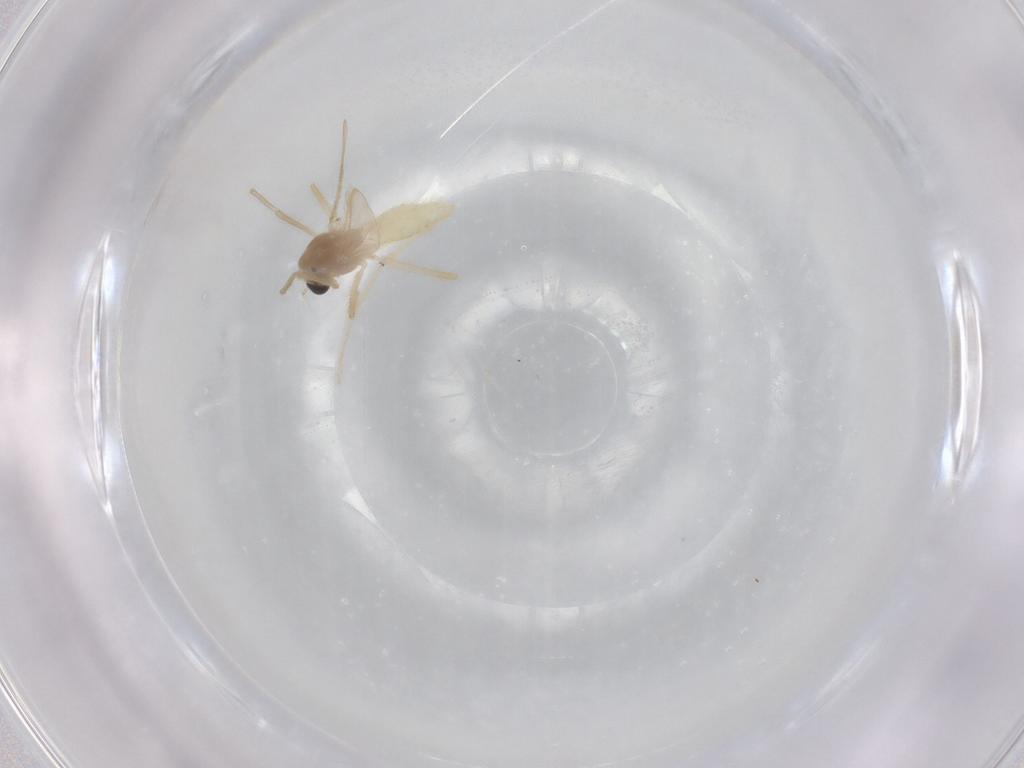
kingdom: Animalia
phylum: Arthropoda
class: Insecta
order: Diptera
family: Chironomidae
